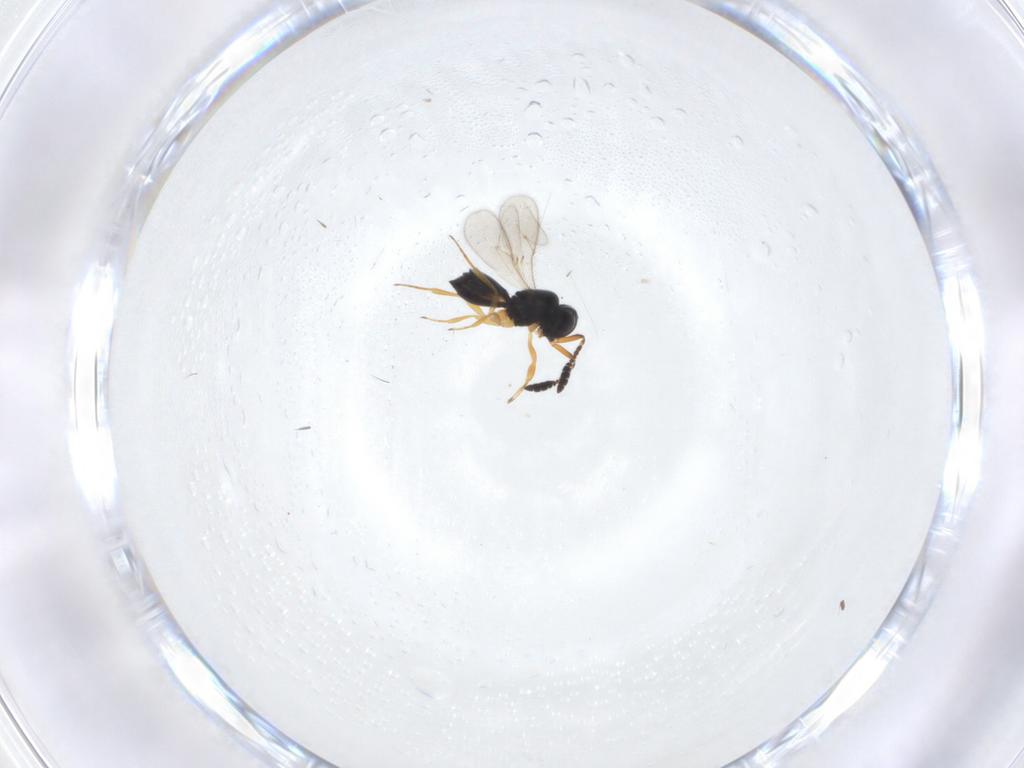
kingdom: Animalia
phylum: Arthropoda
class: Insecta
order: Hymenoptera
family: Scelionidae
